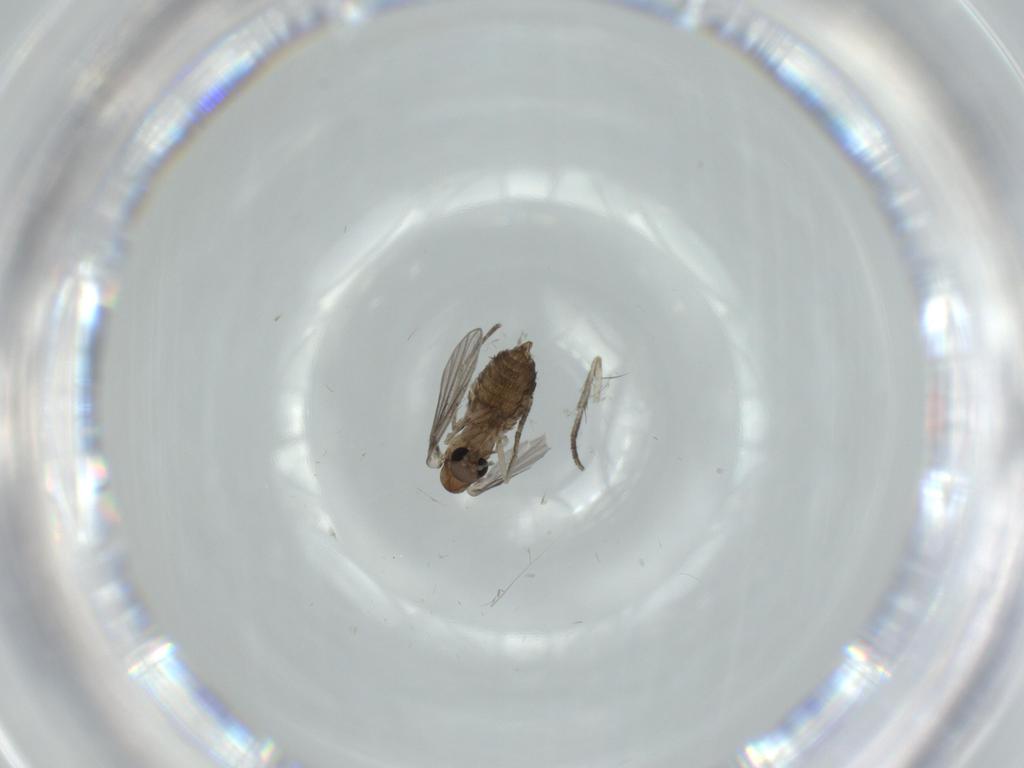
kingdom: Animalia
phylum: Arthropoda
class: Insecta
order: Diptera
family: Psychodidae
